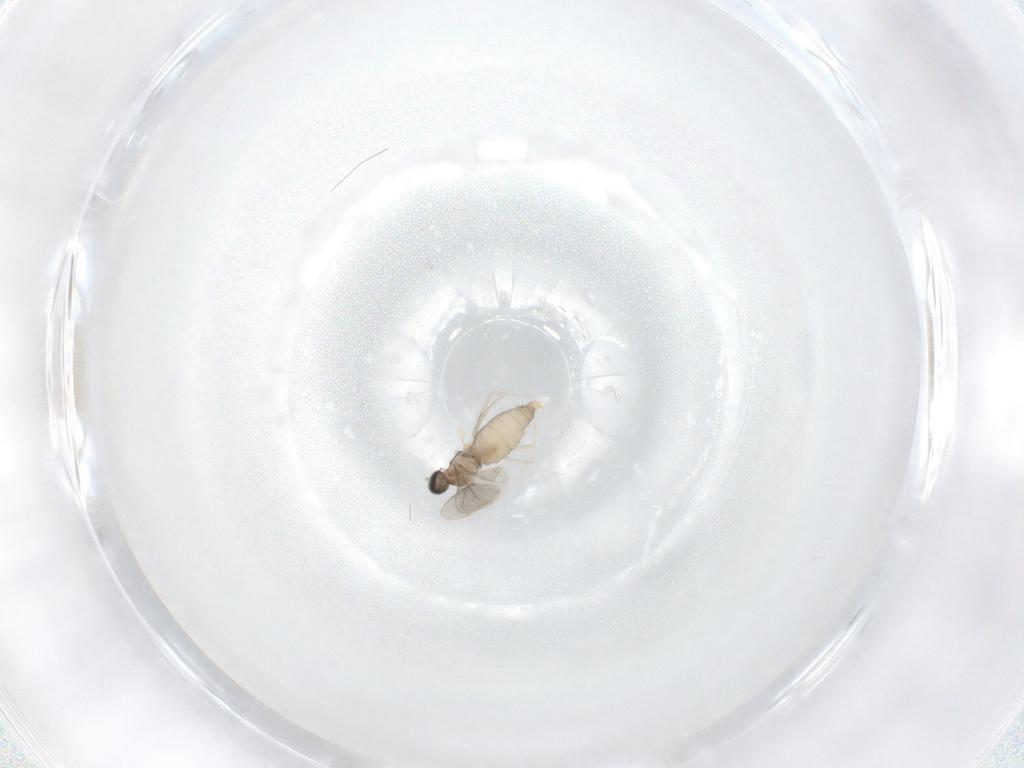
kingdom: Animalia
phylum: Arthropoda
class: Insecta
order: Diptera
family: Cecidomyiidae
